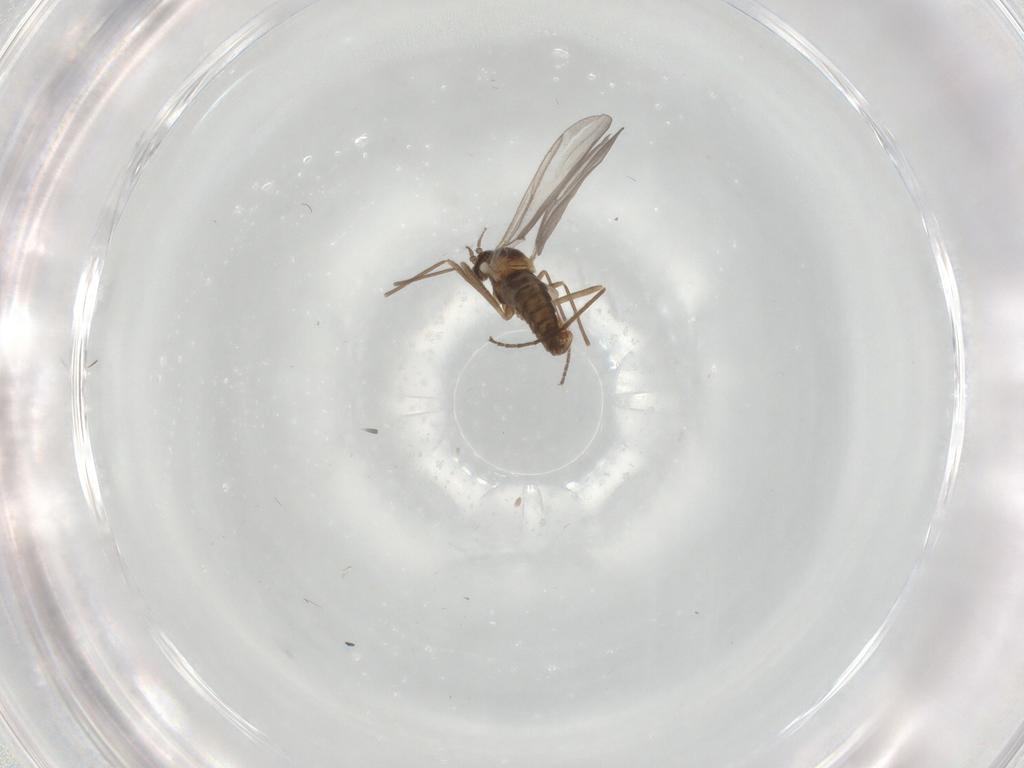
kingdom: Animalia
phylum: Arthropoda
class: Insecta
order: Diptera
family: Cecidomyiidae
